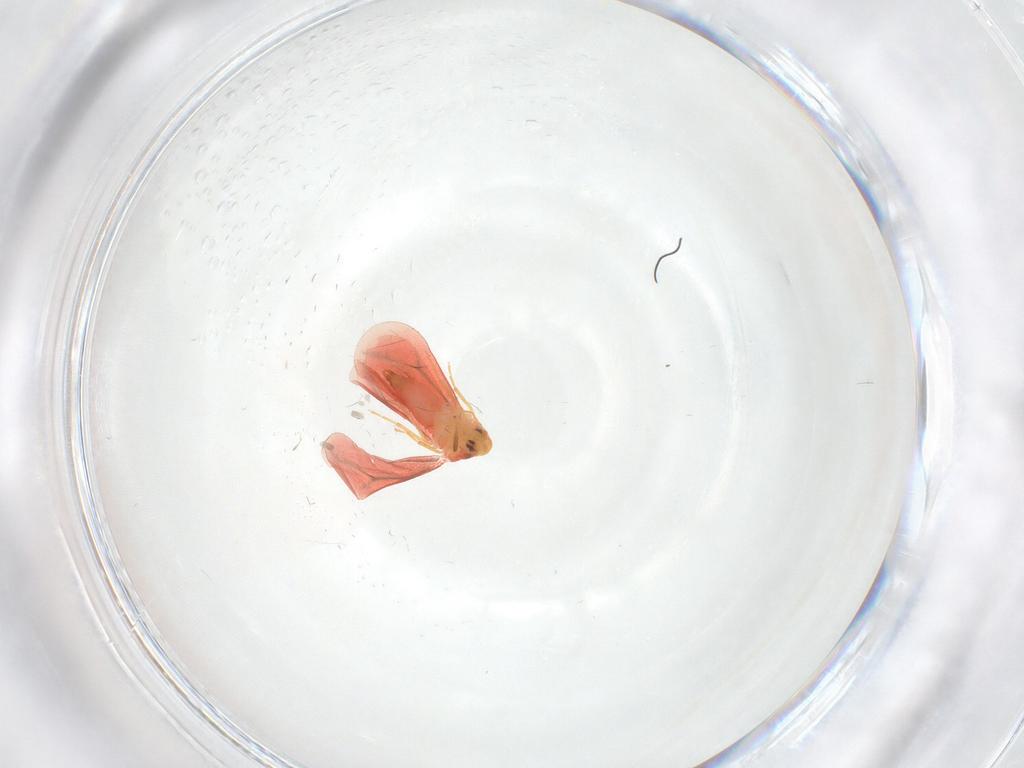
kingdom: Animalia
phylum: Arthropoda
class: Insecta
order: Hemiptera
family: Aleyrodidae
